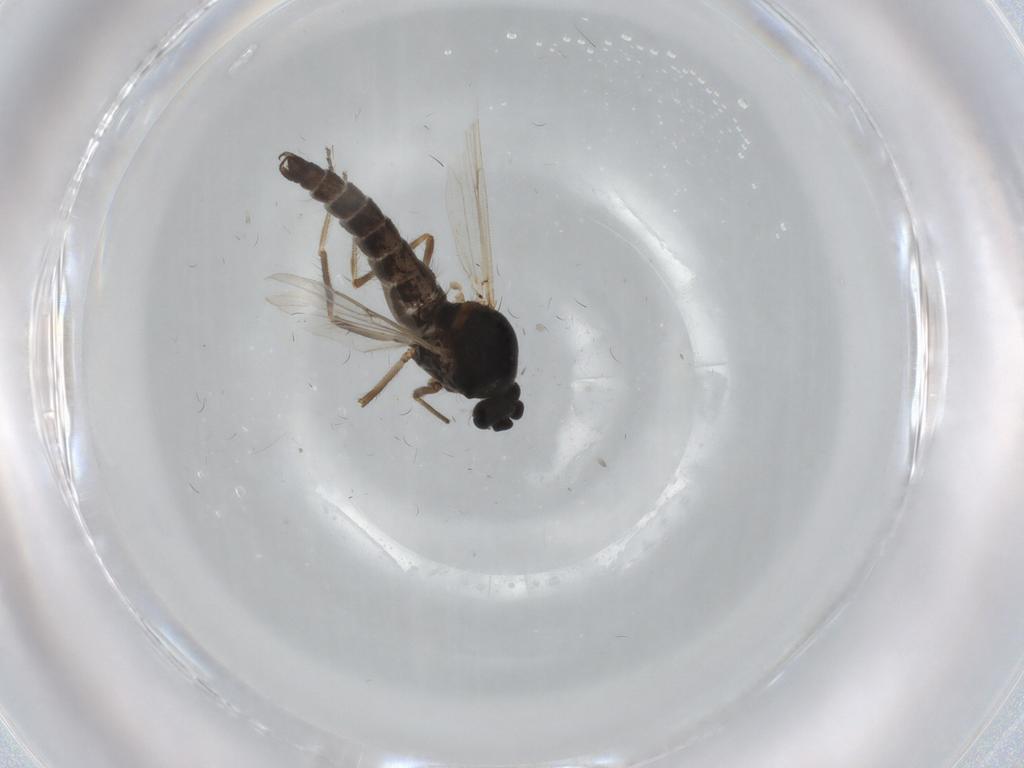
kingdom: Animalia
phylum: Arthropoda
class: Insecta
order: Diptera
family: Ceratopogonidae
